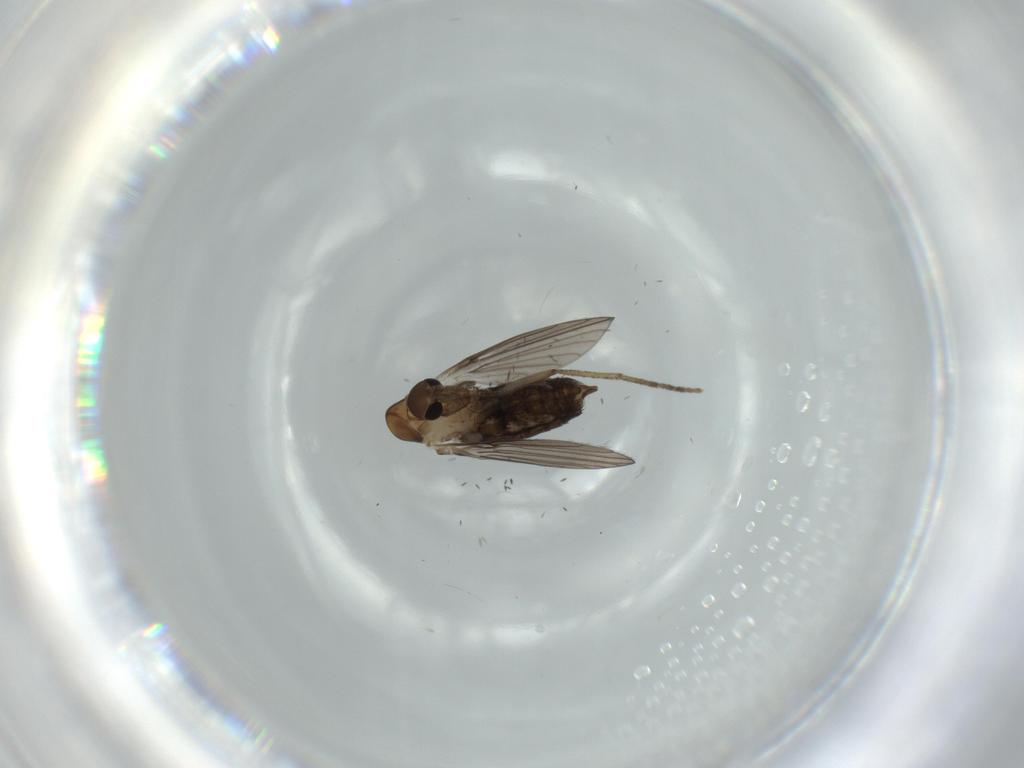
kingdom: Animalia
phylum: Arthropoda
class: Insecta
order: Diptera
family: Psychodidae
